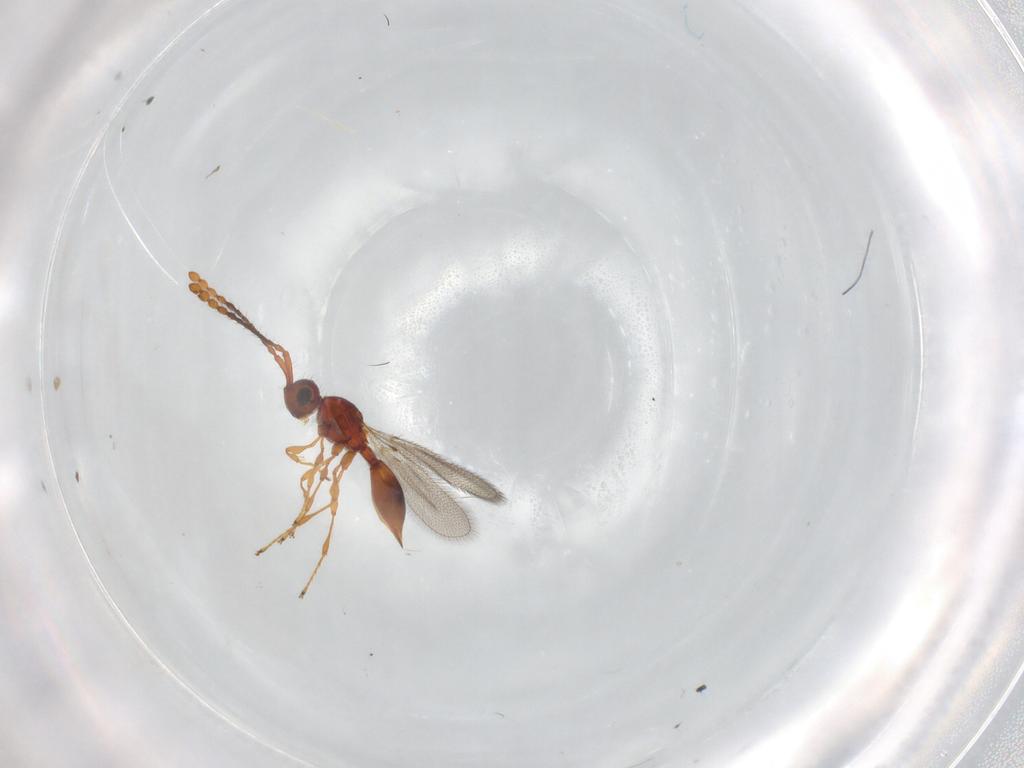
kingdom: Animalia
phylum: Arthropoda
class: Insecta
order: Hymenoptera
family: Diapriidae
